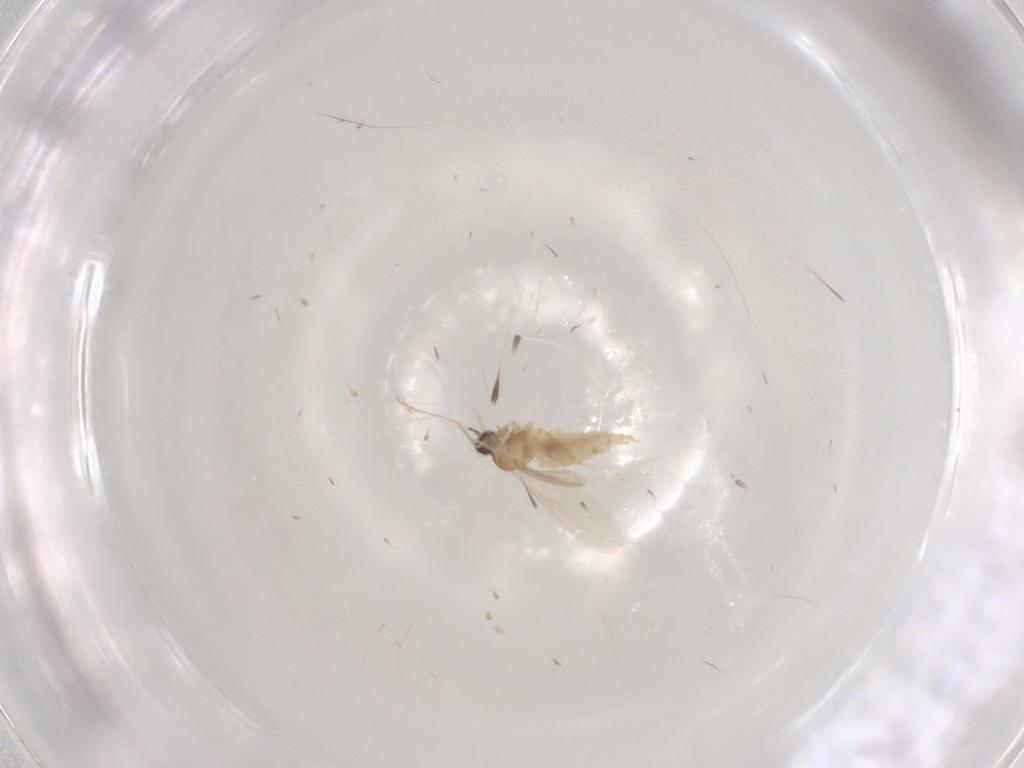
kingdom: Animalia
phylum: Arthropoda
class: Insecta
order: Diptera
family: Cecidomyiidae
